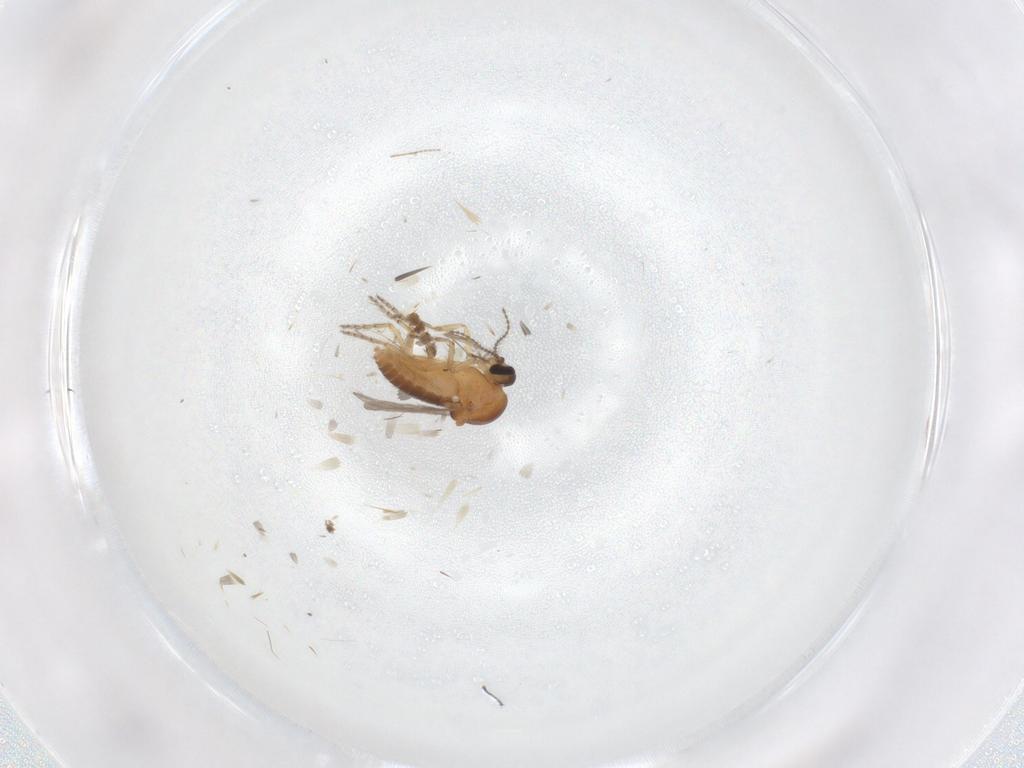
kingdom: Animalia
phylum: Arthropoda
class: Insecta
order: Diptera
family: Ceratopogonidae
